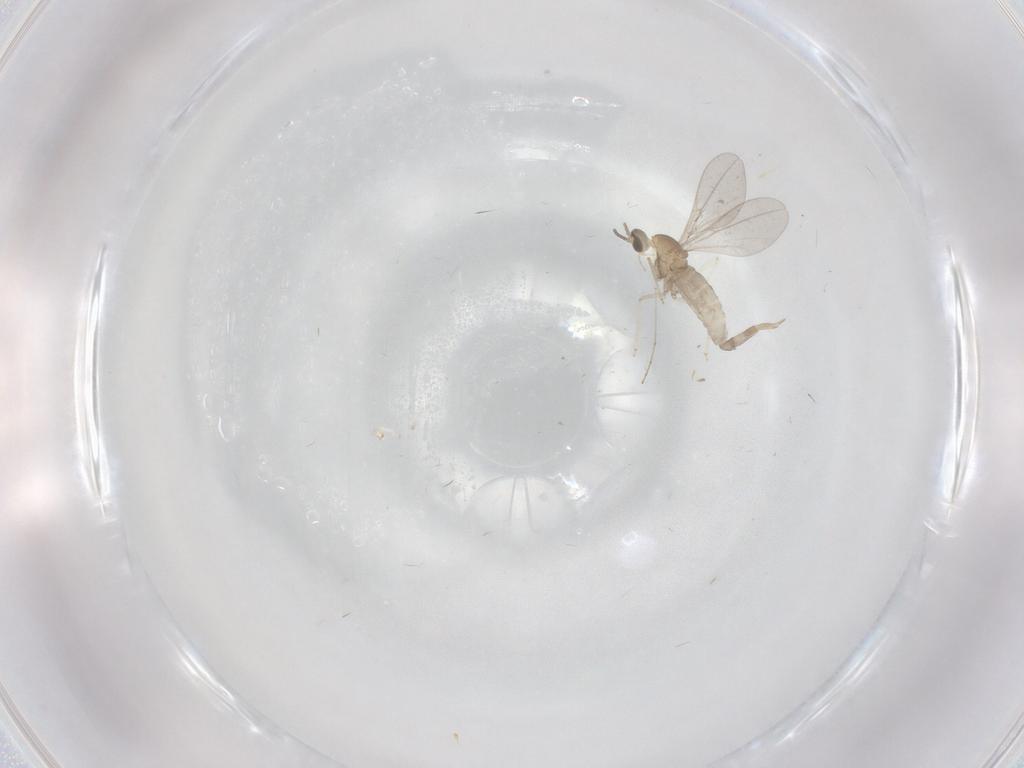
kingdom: Animalia
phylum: Arthropoda
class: Insecta
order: Diptera
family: Cecidomyiidae
